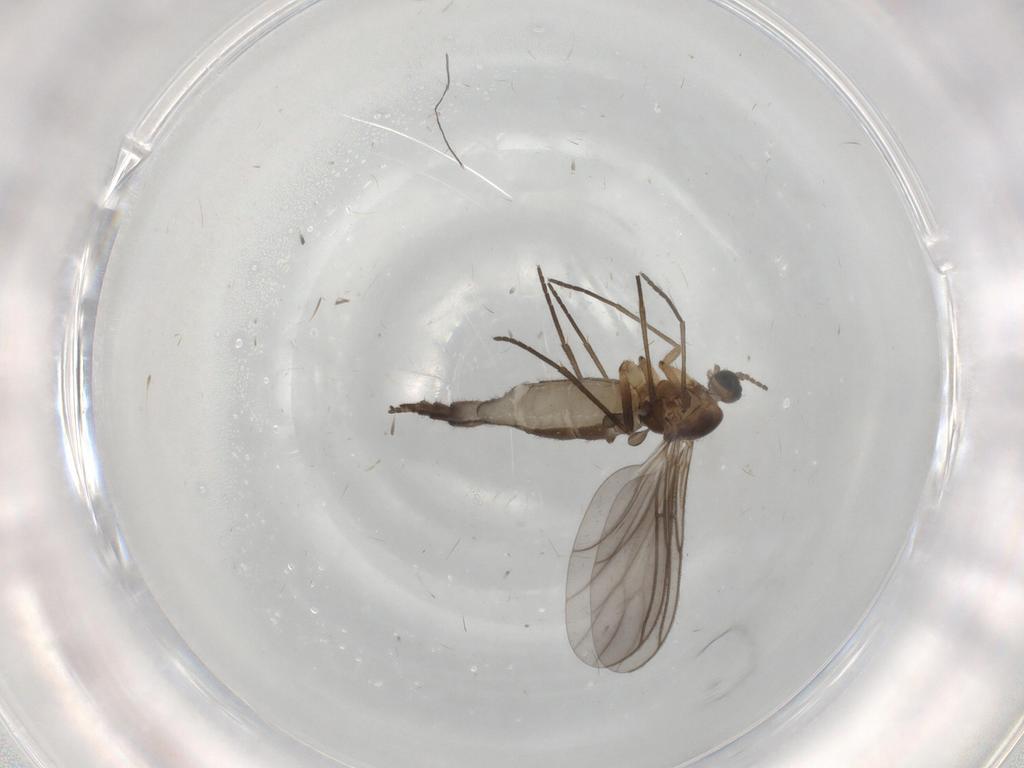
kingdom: Animalia
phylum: Arthropoda
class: Insecta
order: Diptera
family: Sciaridae
